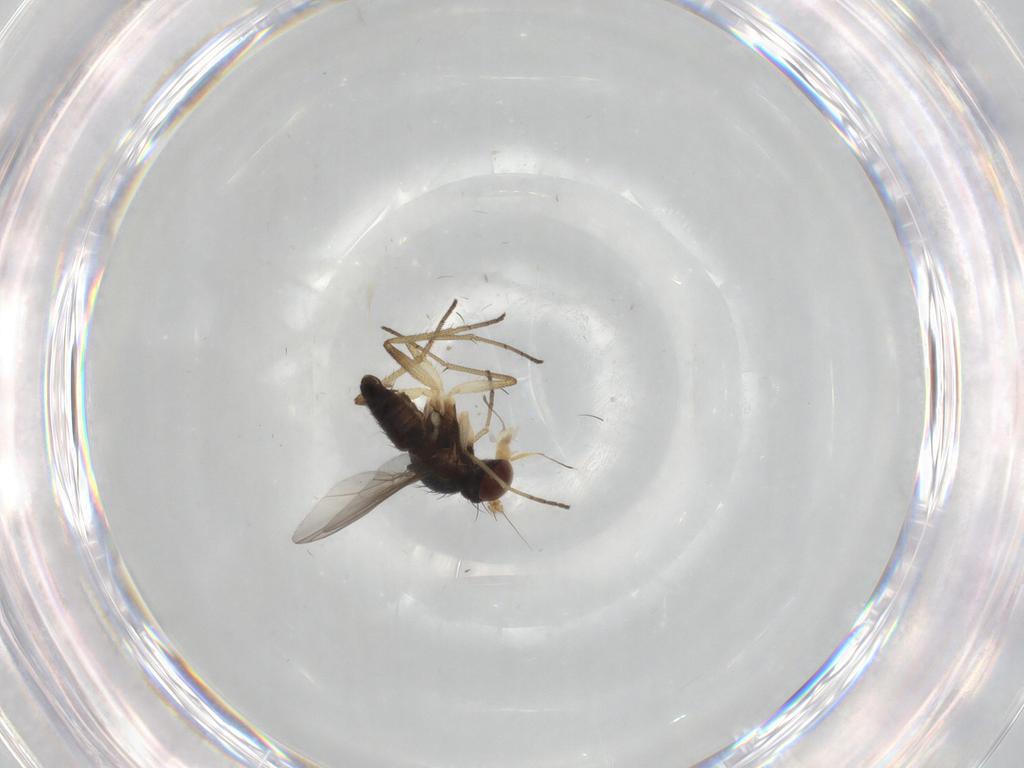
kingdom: Animalia
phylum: Arthropoda
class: Insecta
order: Diptera
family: Dolichopodidae
